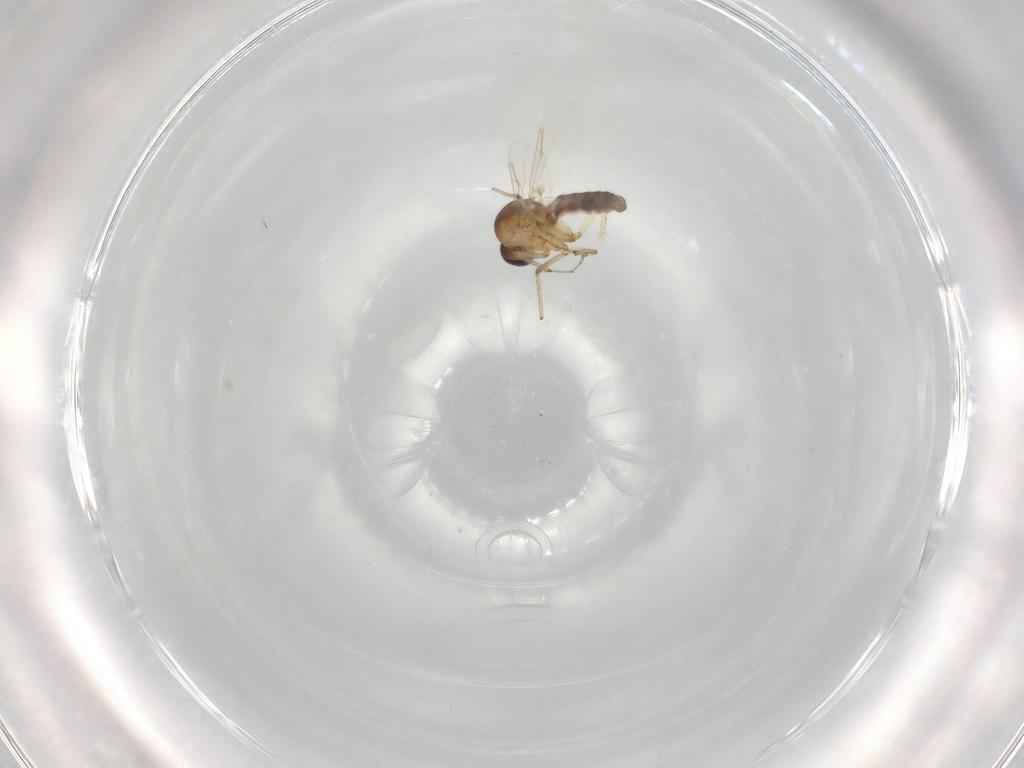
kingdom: Animalia
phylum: Arthropoda
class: Insecta
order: Diptera
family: Ceratopogonidae
